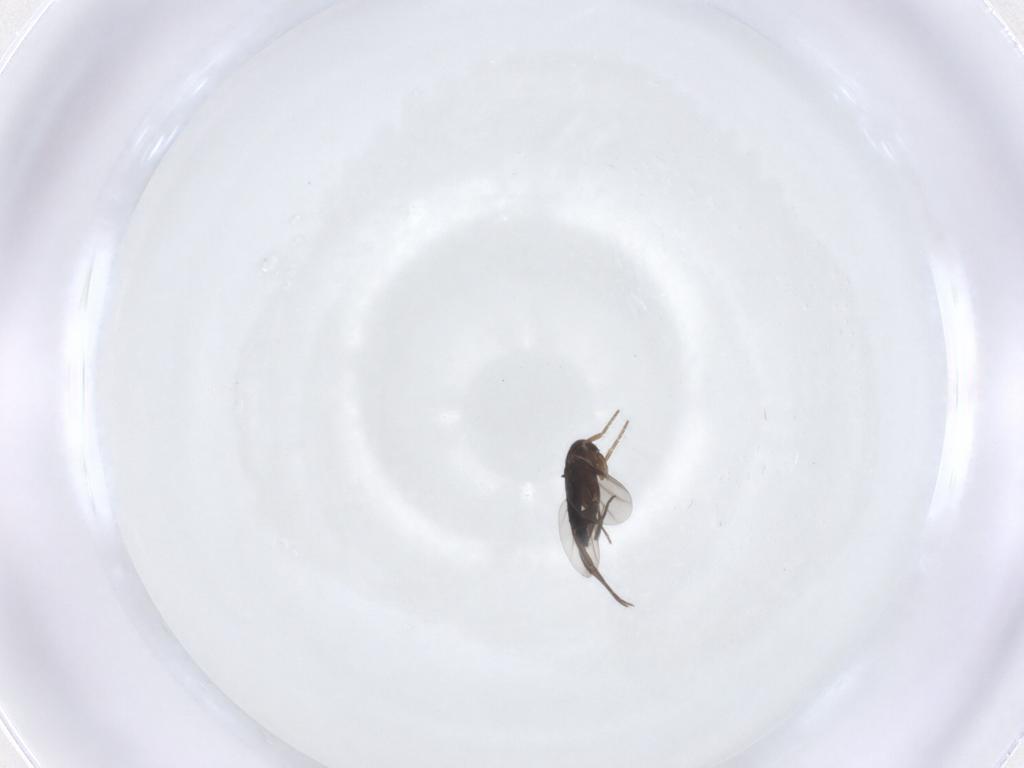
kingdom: Animalia
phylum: Arthropoda
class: Insecta
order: Diptera
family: Phoridae
